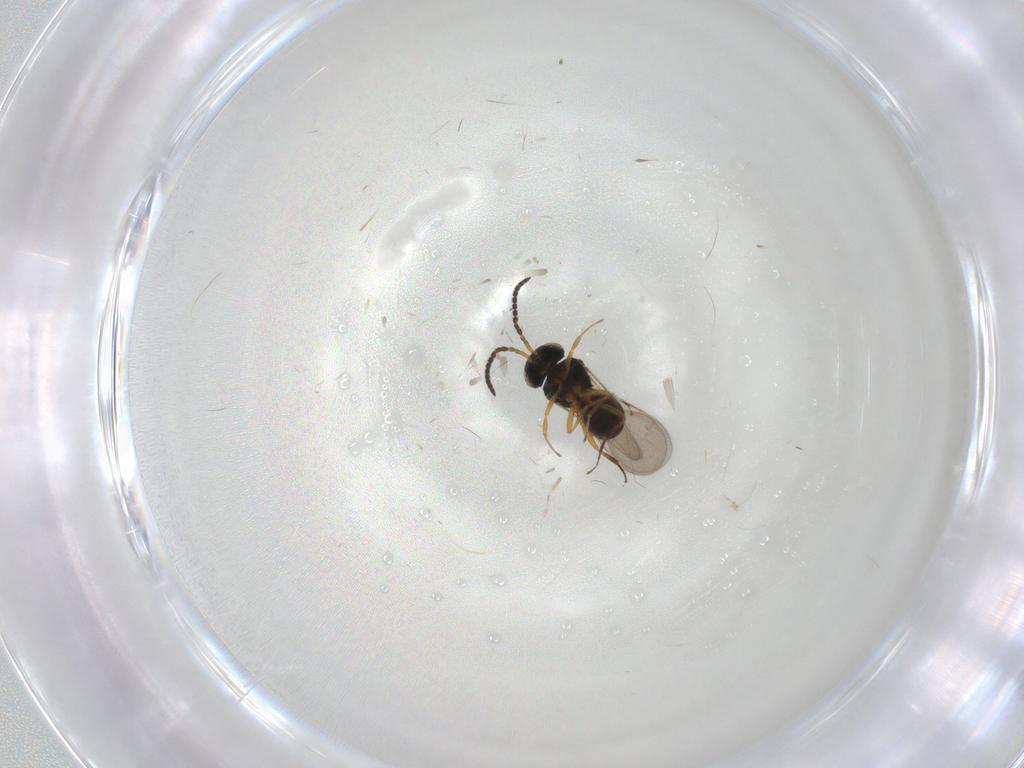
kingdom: Animalia
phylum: Arthropoda
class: Insecta
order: Hymenoptera
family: Scelionidae
